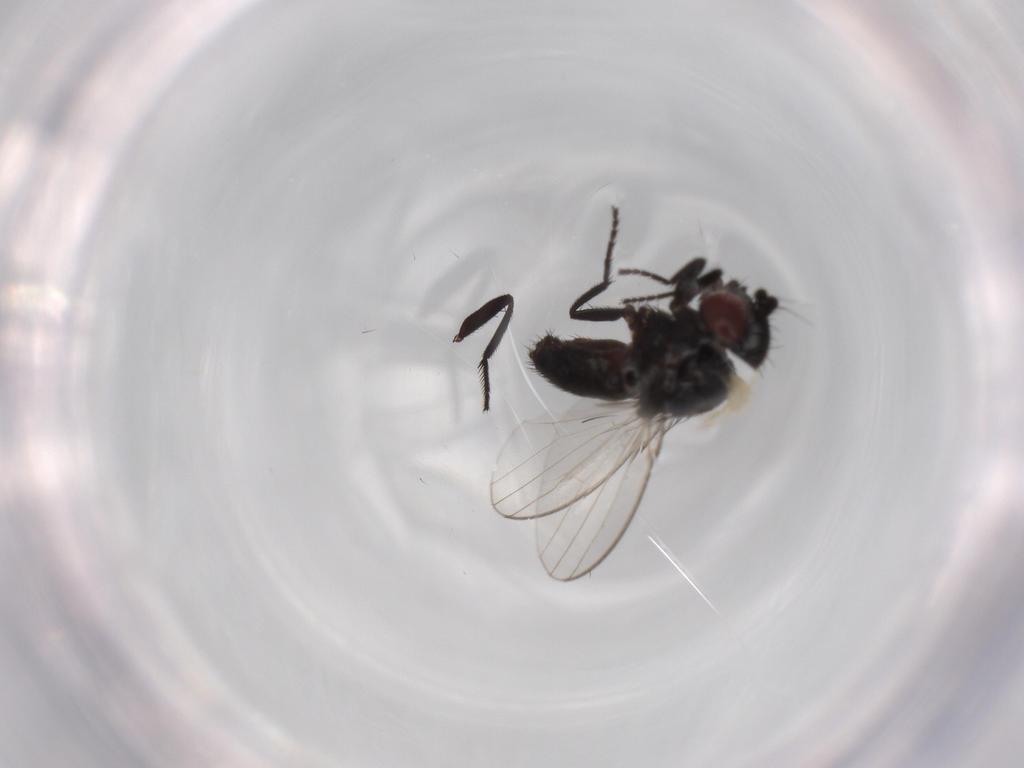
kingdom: Animalia
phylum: Arthropoda
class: Insecta
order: Diptera
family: Milichiidae
